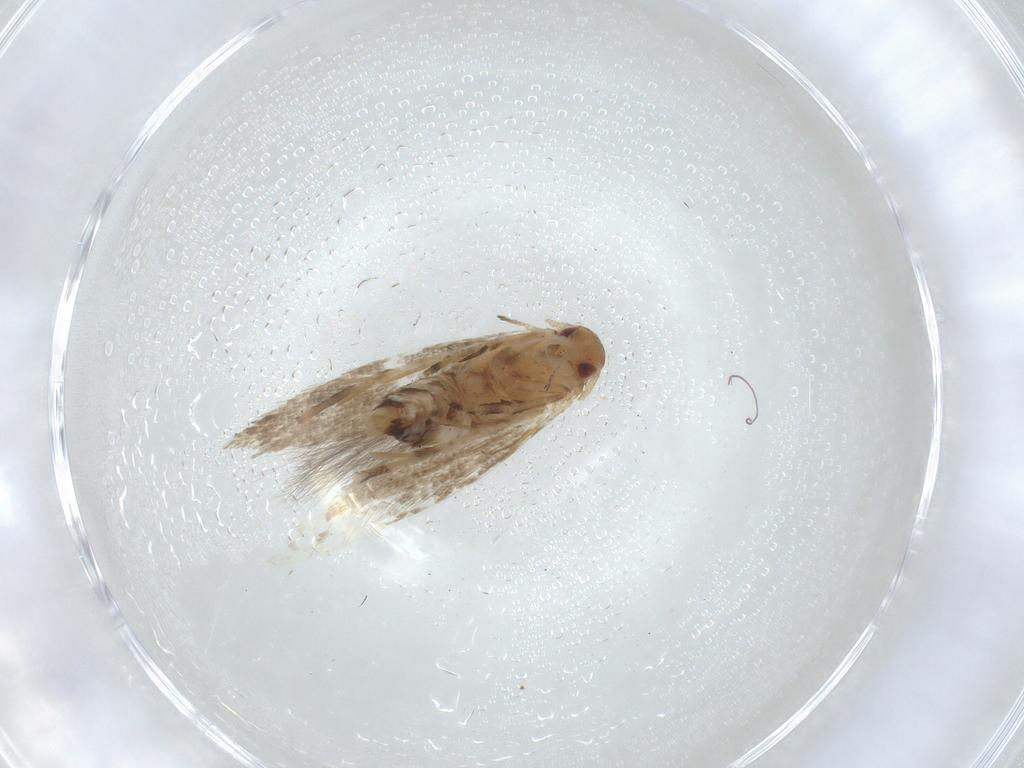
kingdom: Animalia
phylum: Arthropoda
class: Insecta
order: Lepidoptera
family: Momphidae
